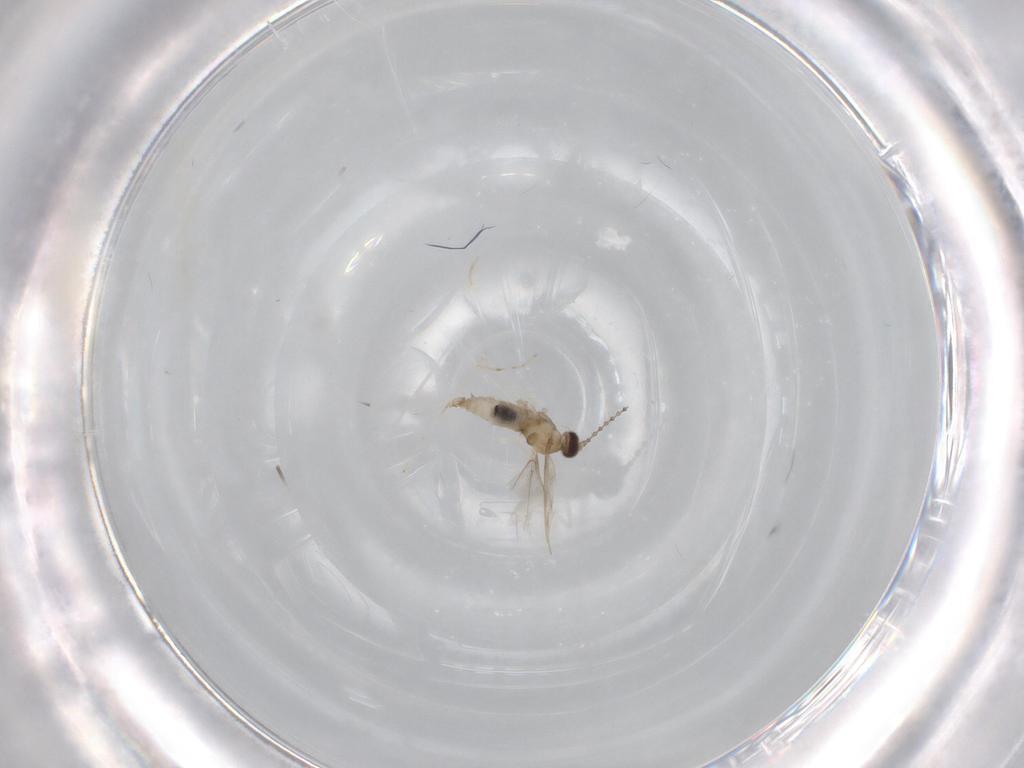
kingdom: Animalia
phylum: Arthropoda
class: Insecta
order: Diptera
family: Cecidomyiidae
